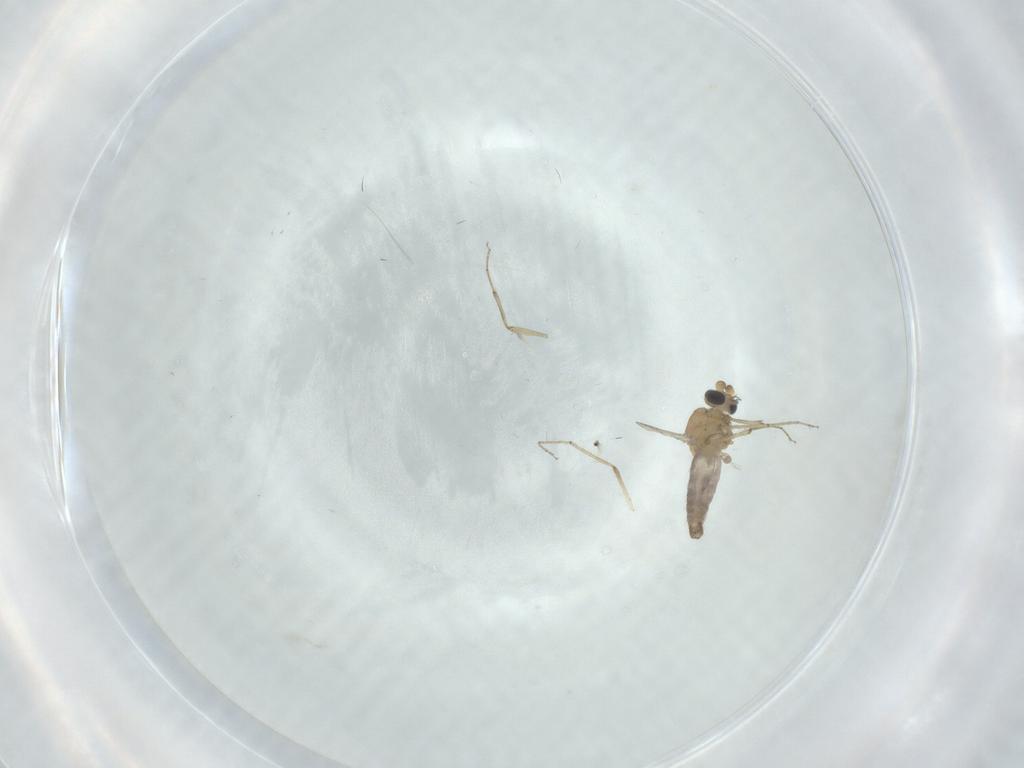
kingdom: Animalia
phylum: Arthropoda
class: Insecta
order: Diptera
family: Ceratopogonidae
